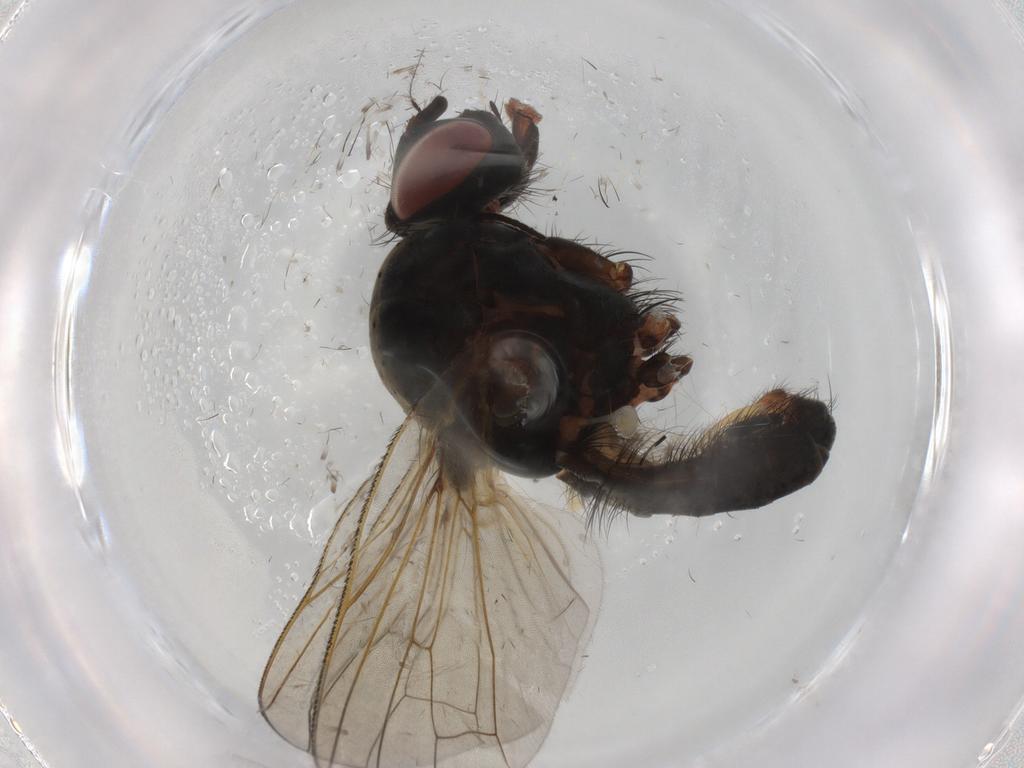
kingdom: Animalia
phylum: Arthropoda
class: Insecta
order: Diptera
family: Anthomyiidae
